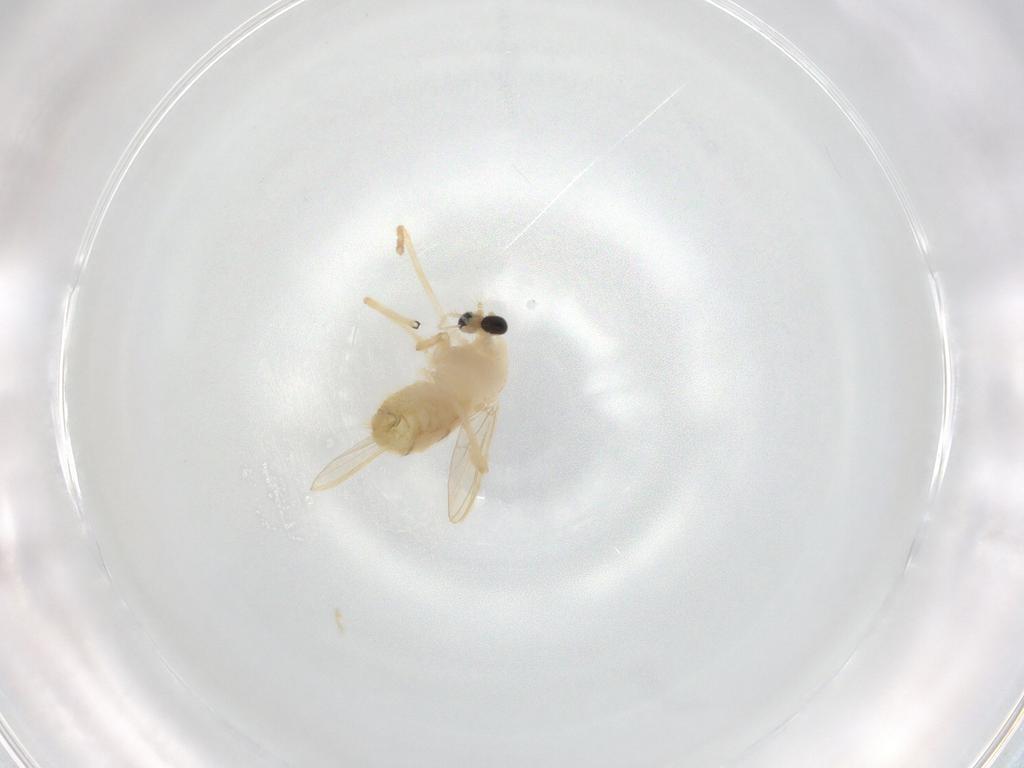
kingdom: Animalia
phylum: Arthropoda
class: Insecta
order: Diptera
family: Chironomidae
